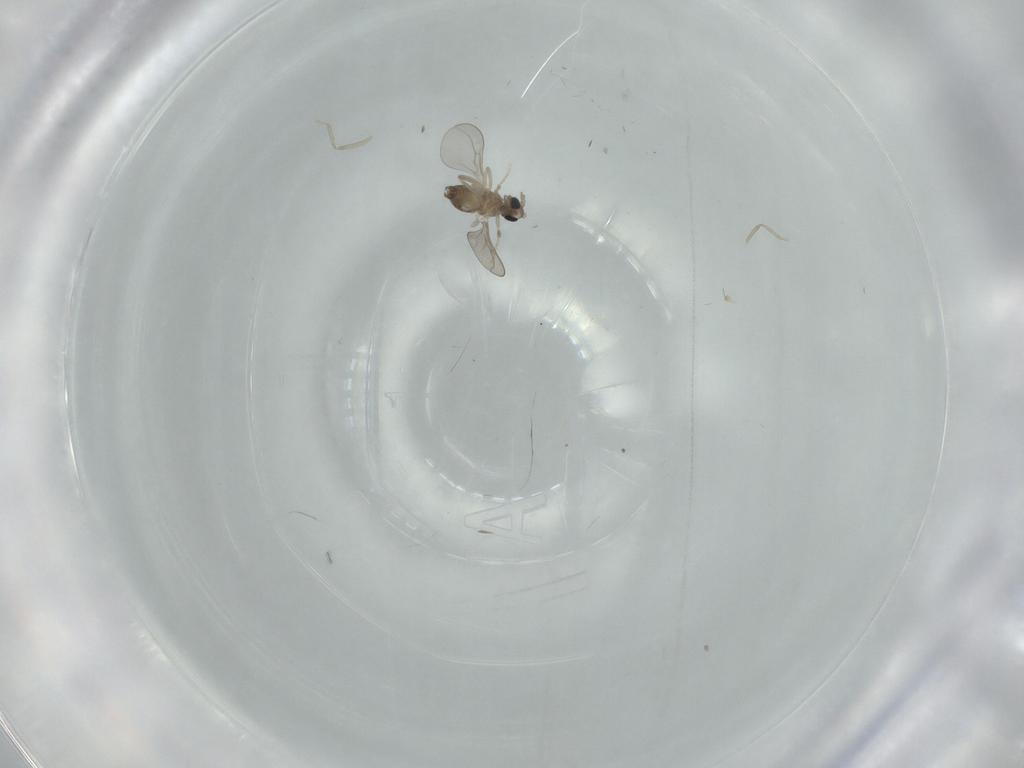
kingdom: Animalia
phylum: Arthropoda
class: Insecta
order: Diptera
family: Cecidomyiidae
